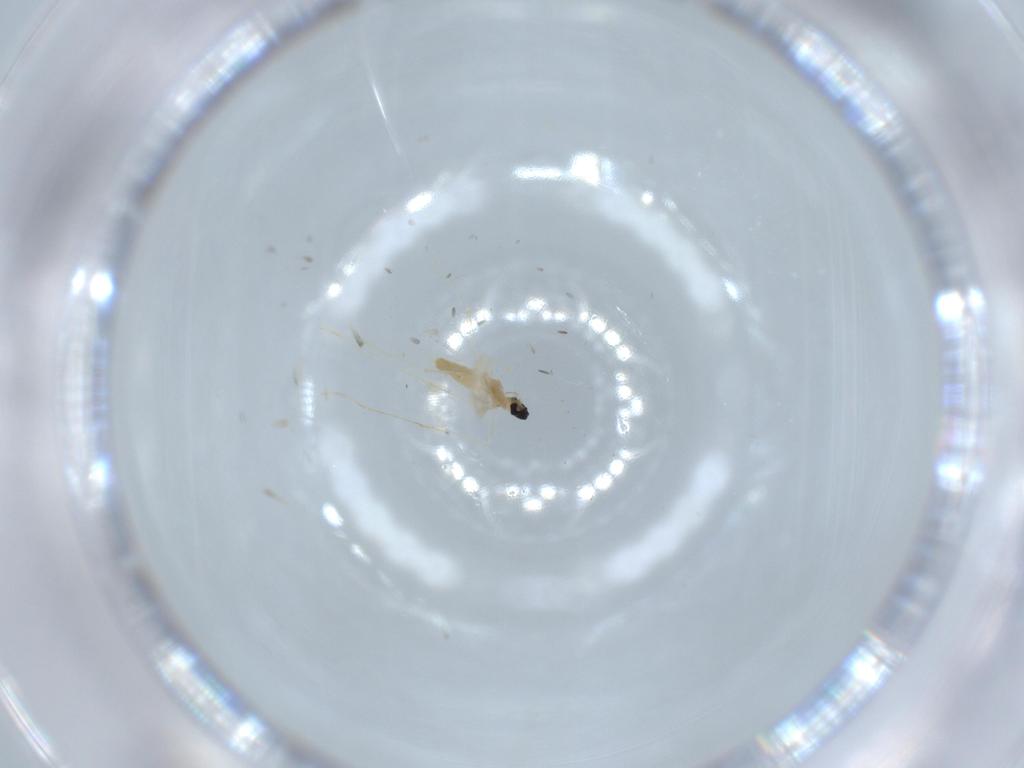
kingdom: Animalia
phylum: Arthropoda
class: Insecta
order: Diptera
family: Cecidomyiidae
